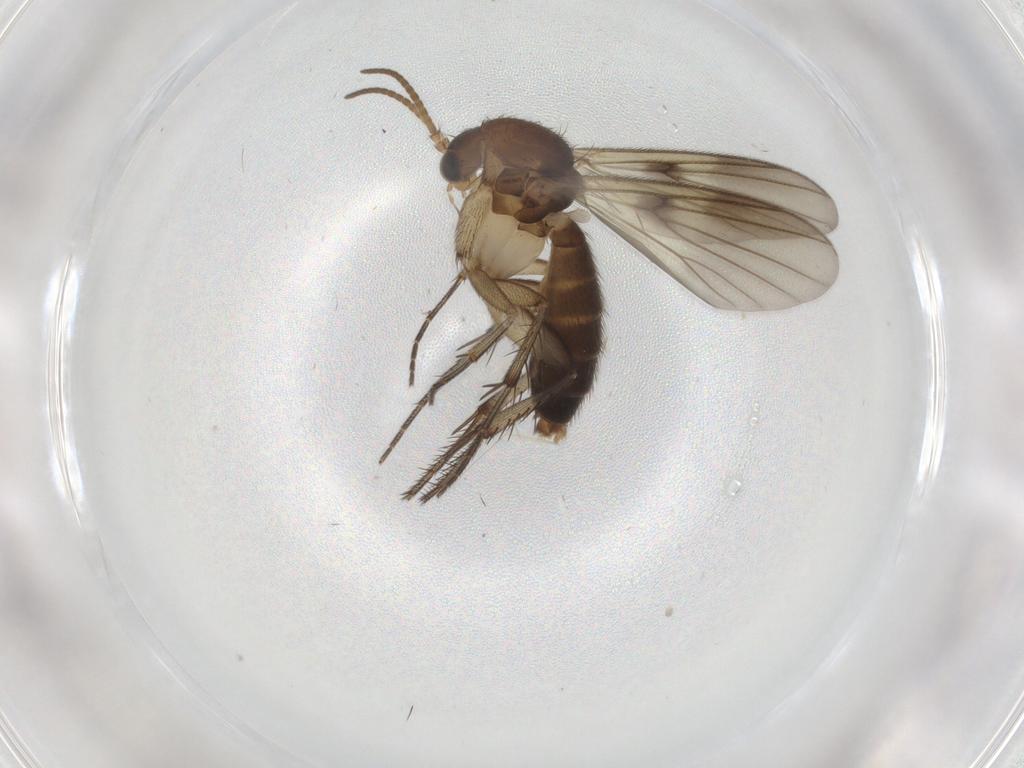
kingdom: Animalia
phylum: Arthropoda
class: Insecta
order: Diptera
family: Sciaridae
